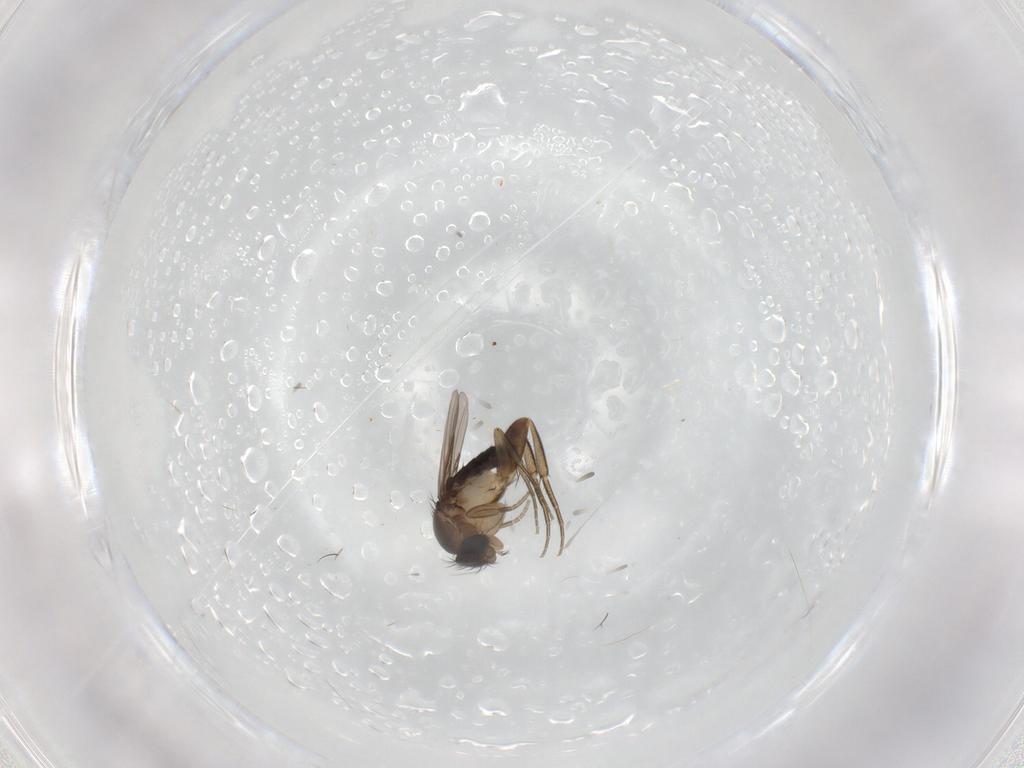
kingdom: Animalia
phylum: Arthropoda
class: Insecta
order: Diptera
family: Phoridae
